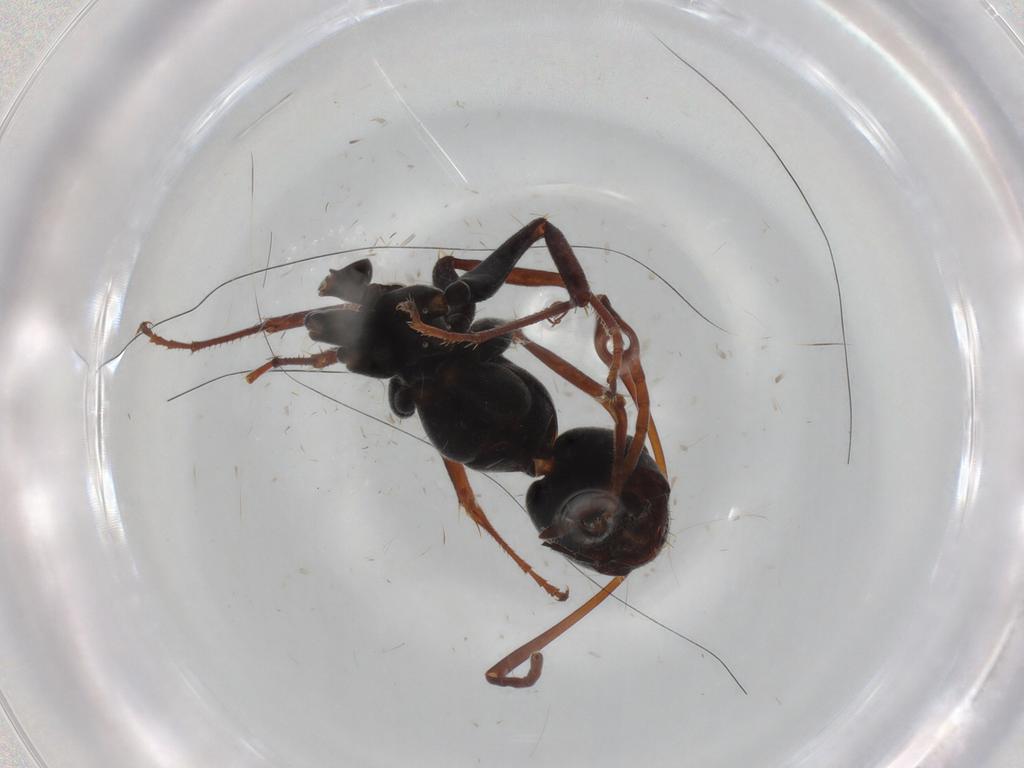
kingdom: Animalia
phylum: Arthropoda
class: Insecta
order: Hymenoptera
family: Formicidae
